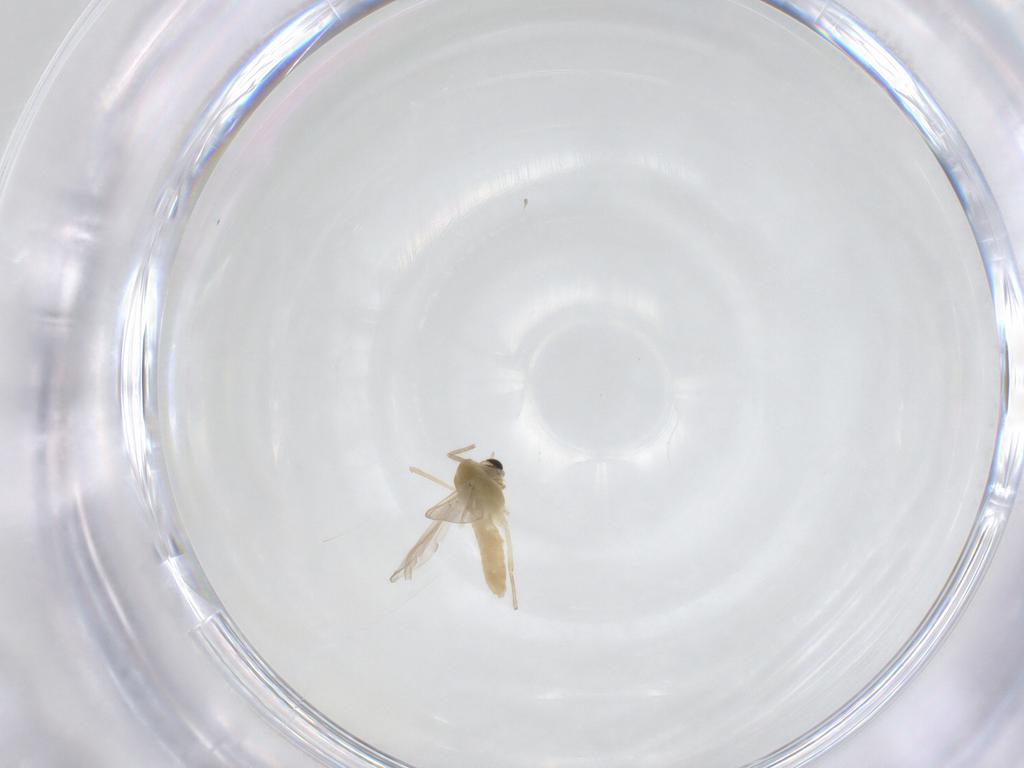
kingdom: Animalia
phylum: Arthropoda
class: Insecta
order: Diptera
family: Chironomidae
